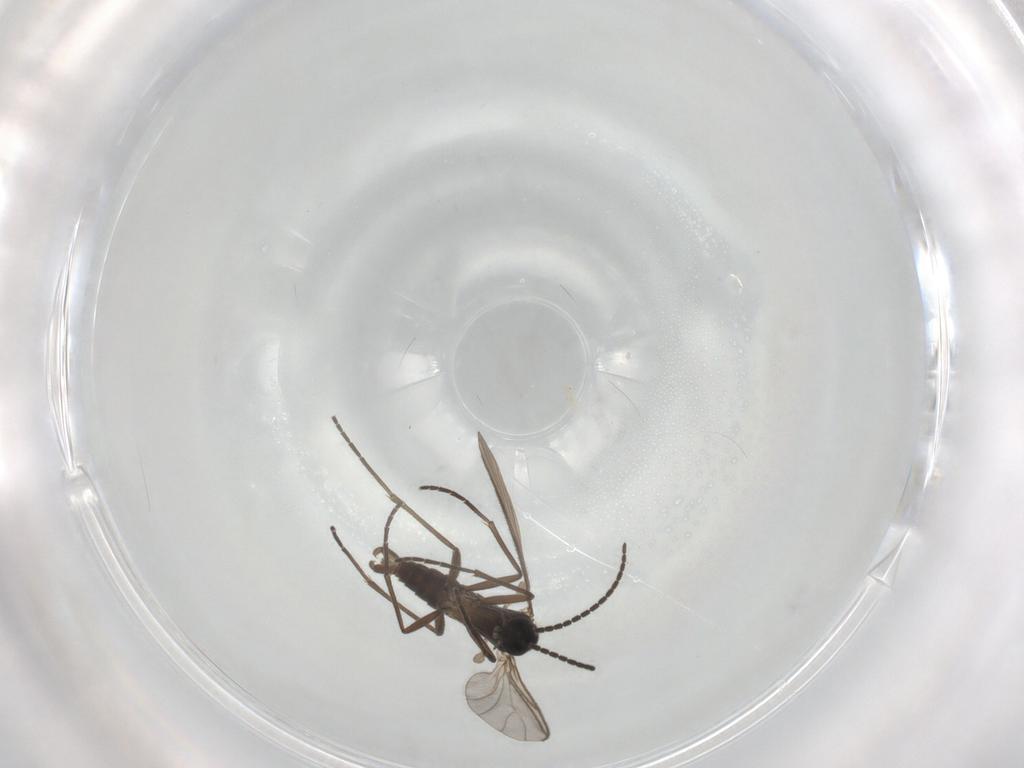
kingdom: Animalia
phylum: Arthropoda
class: Insecta
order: Diptera
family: Sciaridae
